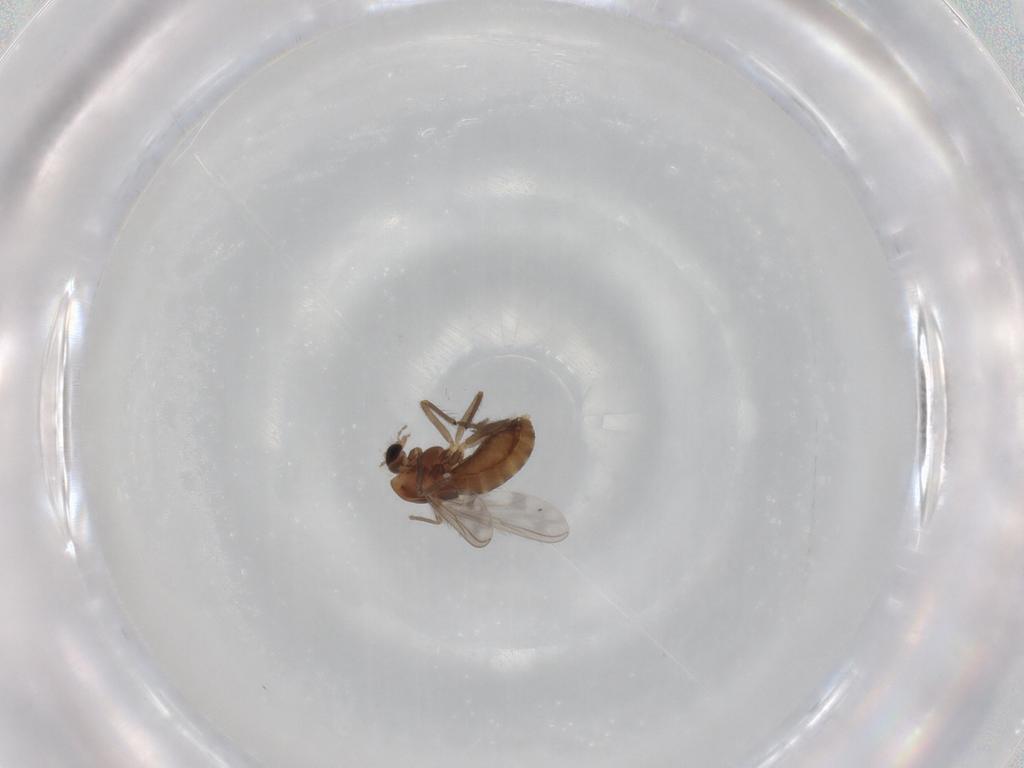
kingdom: Animalia
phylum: Arthropoda
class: Insecta
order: Diptera
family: Chironomidae
